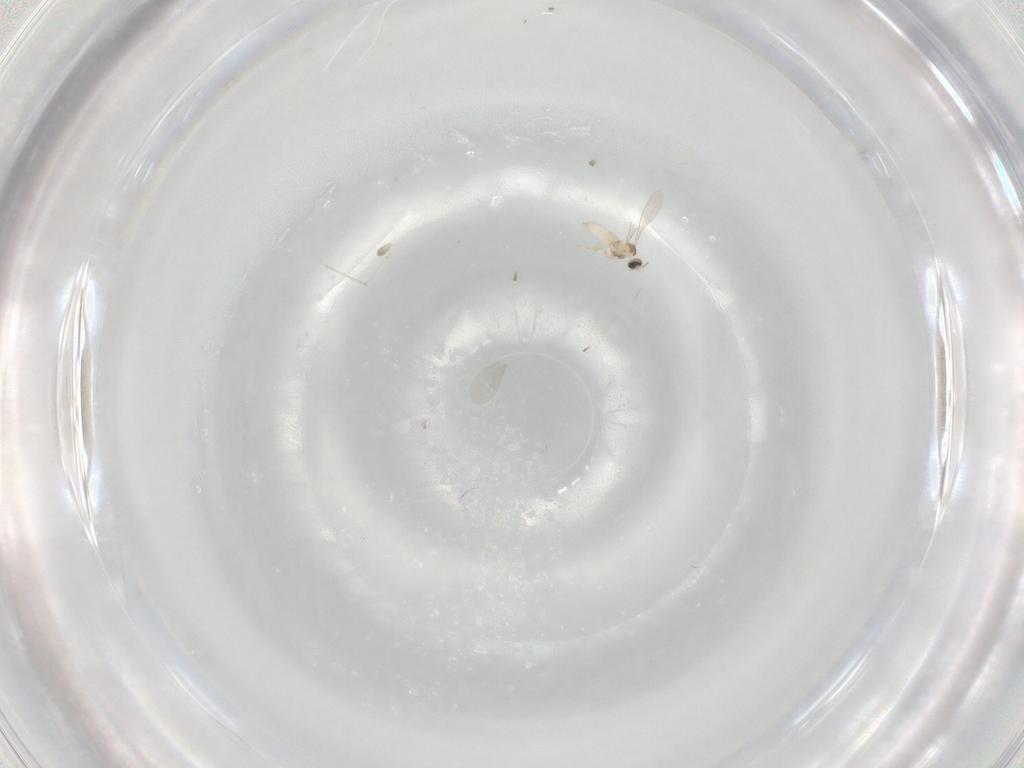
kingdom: Animalia
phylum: Arthropoda
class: Insecta
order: Diptera
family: Cecidomyiidae
